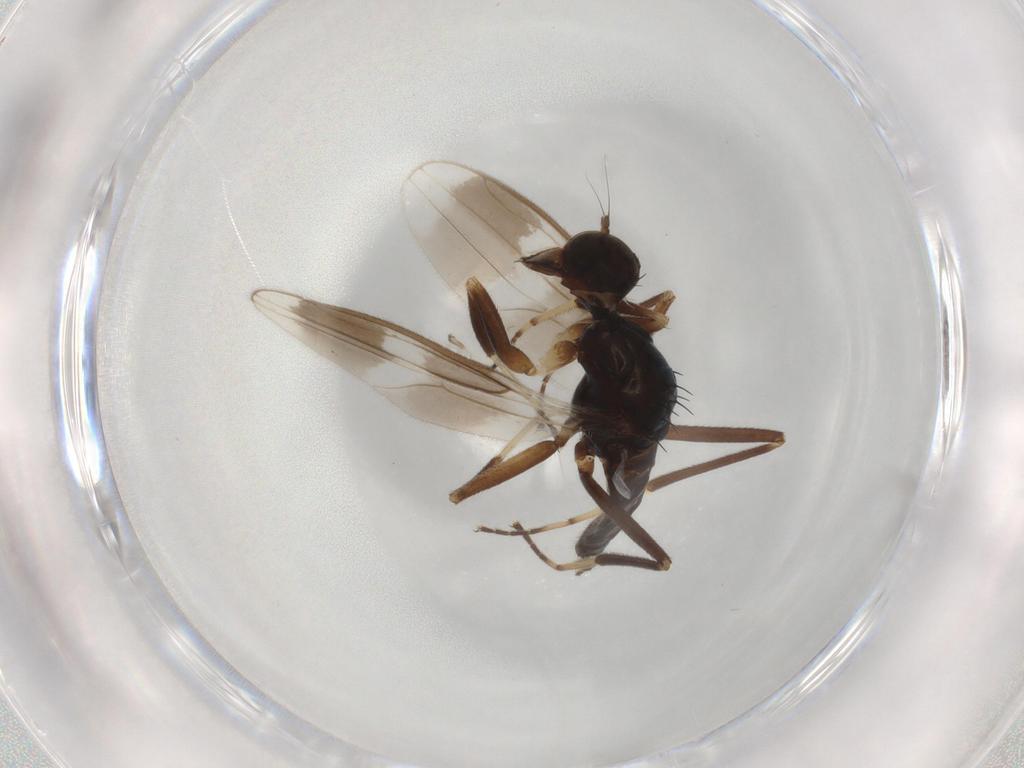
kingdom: Animalia
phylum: Arthropoda
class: Insecta
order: Diptera
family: Hybotidae
